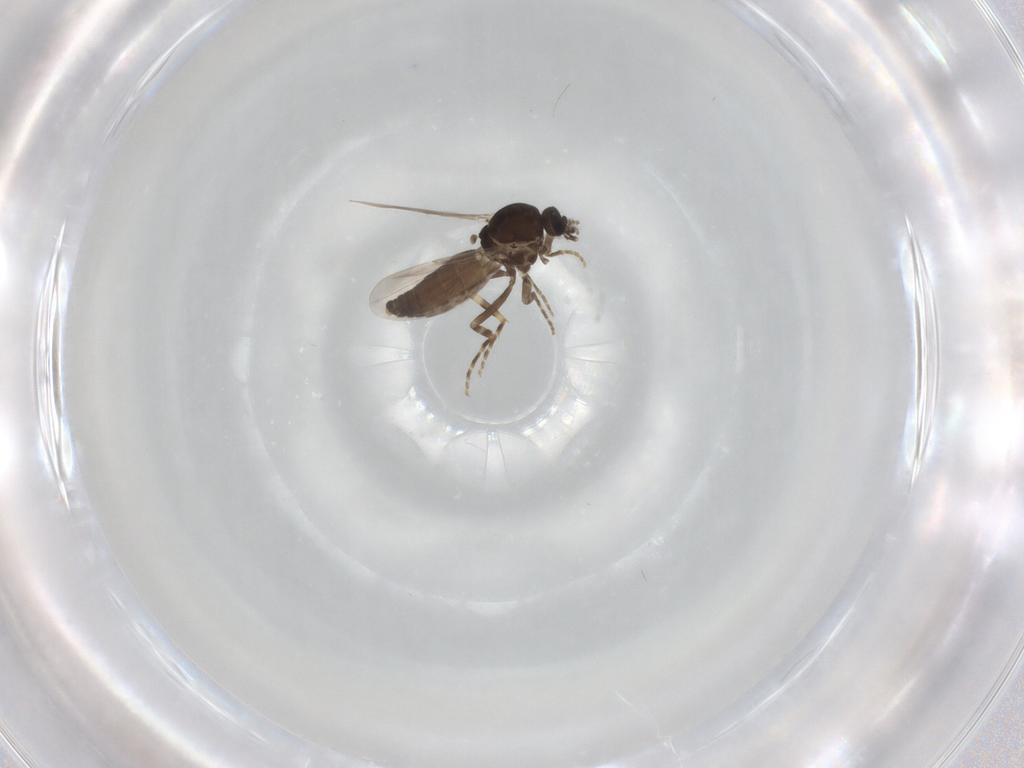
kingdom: Animalia
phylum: Arthropoda
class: Insecta
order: Diptera
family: Ceratopogonidae
